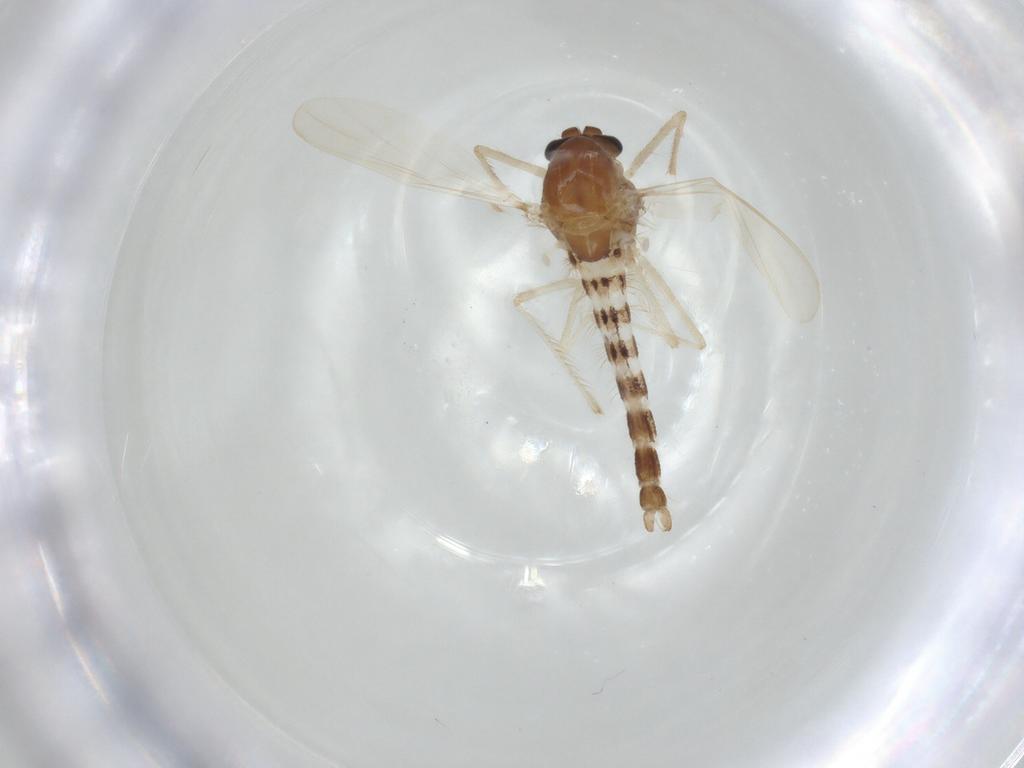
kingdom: Animalia
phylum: Arthropoda
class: Insecta
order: Diptera
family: Chironomidae
